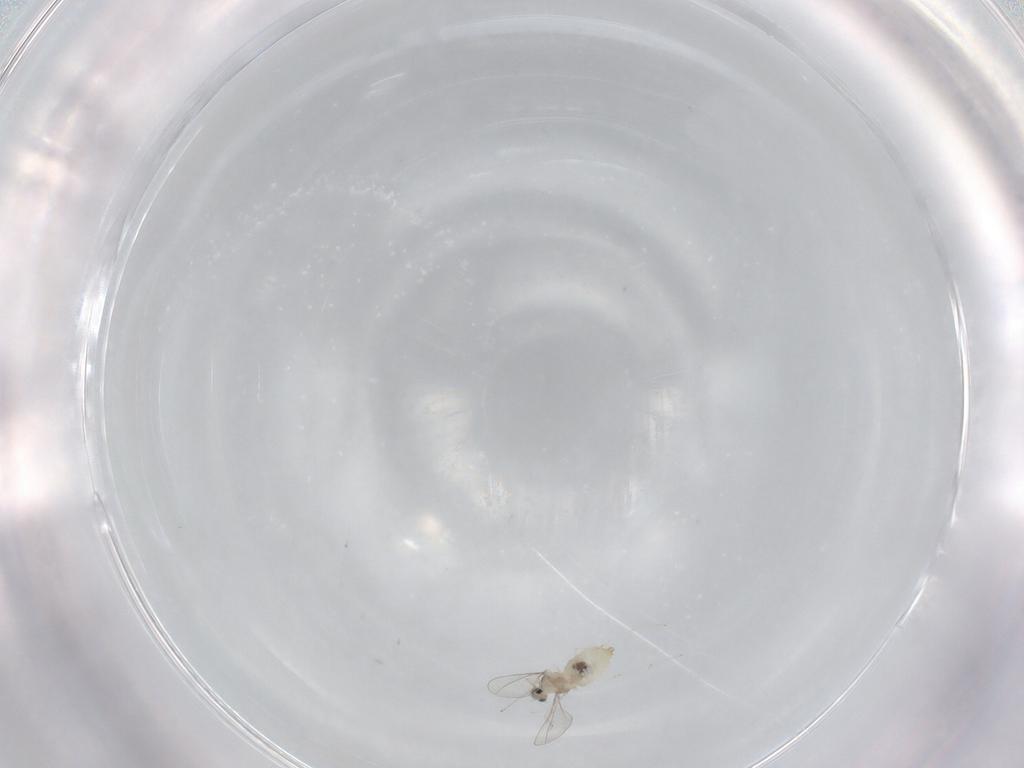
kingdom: Animalia
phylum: Arthropoda
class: Insecta
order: Diptera
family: Cecidomyiidae
